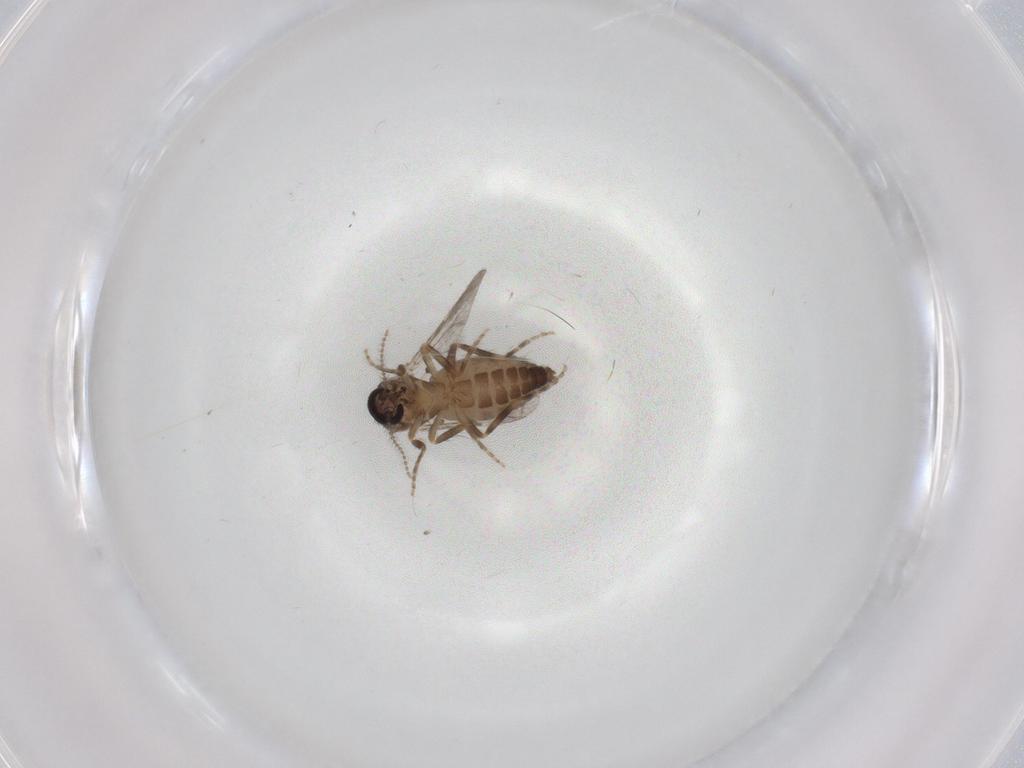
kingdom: Animalia
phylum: Arthropoda
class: Insecta
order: Diptera
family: Ceratopogonidae
